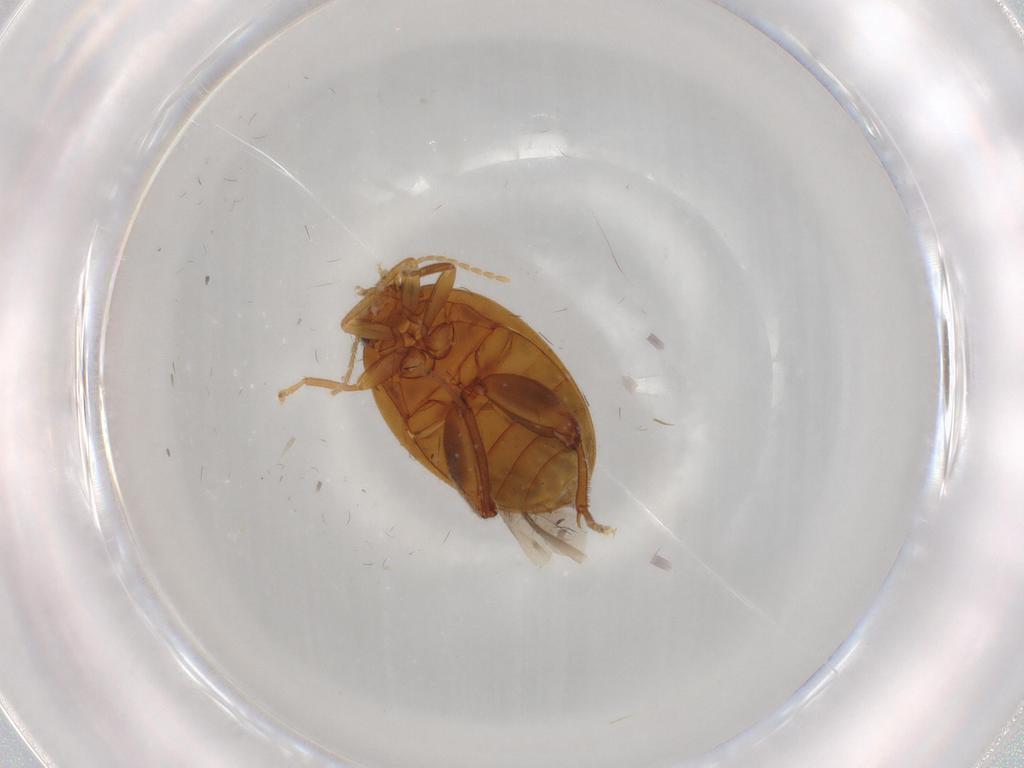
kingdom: Animalia
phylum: Arthropoda
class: Insecta
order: Coleoptera
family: Scirtidae
